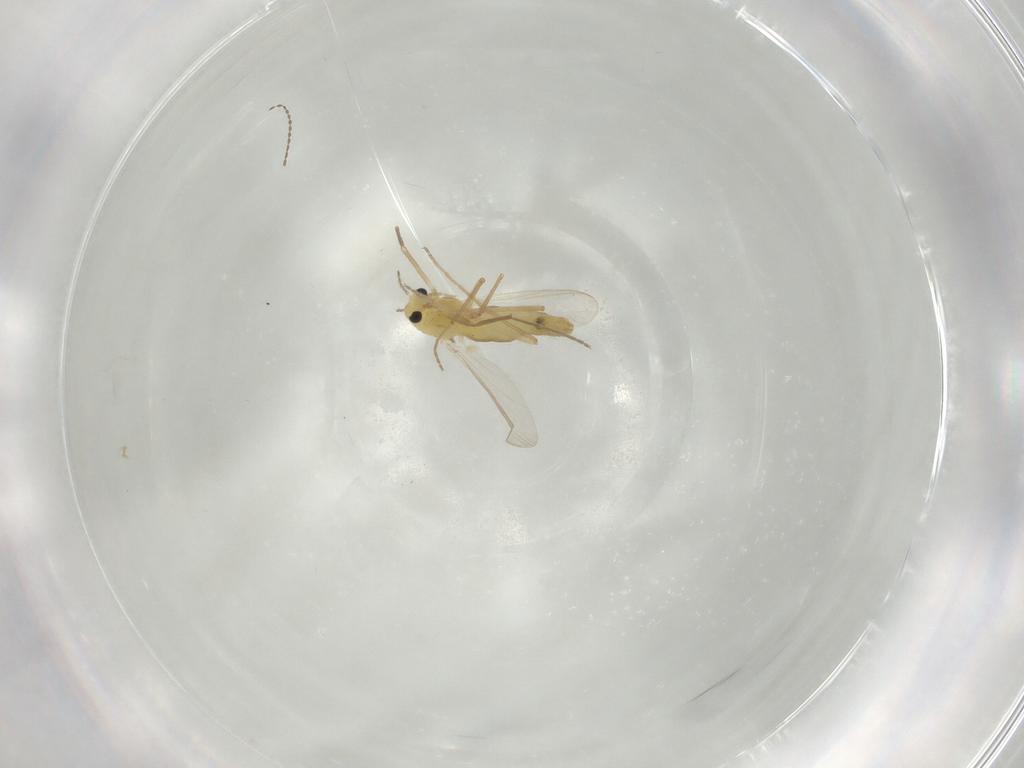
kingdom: Animalia
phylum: Arthropoda
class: Insecta
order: Diptera
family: Chironomidae
